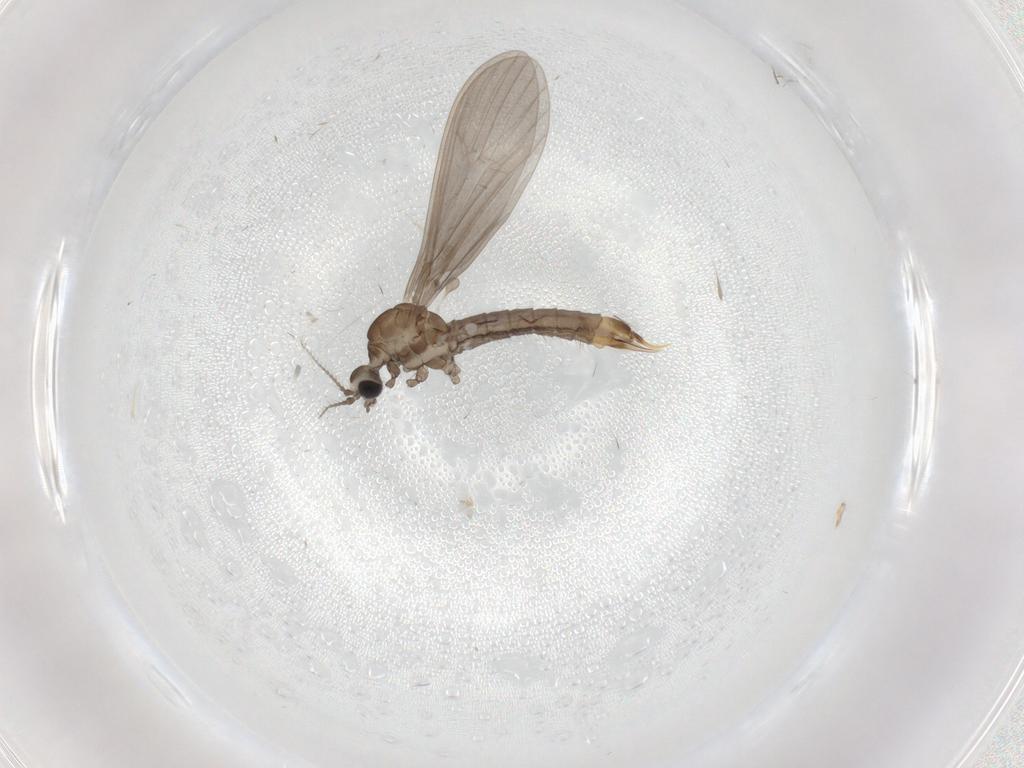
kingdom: Animalia
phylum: Arthropoda
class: Insecta
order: Diptera
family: Limoniidae
